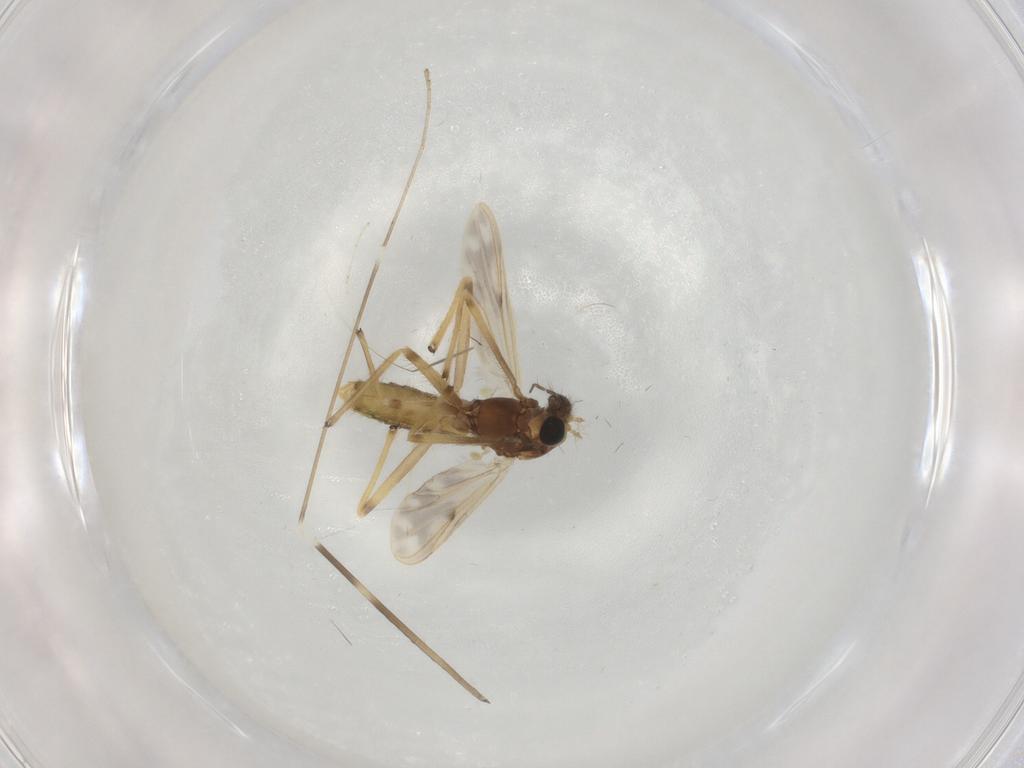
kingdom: Animalia
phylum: Arthropoda
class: Insecta
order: Diptera
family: Chironomidae
